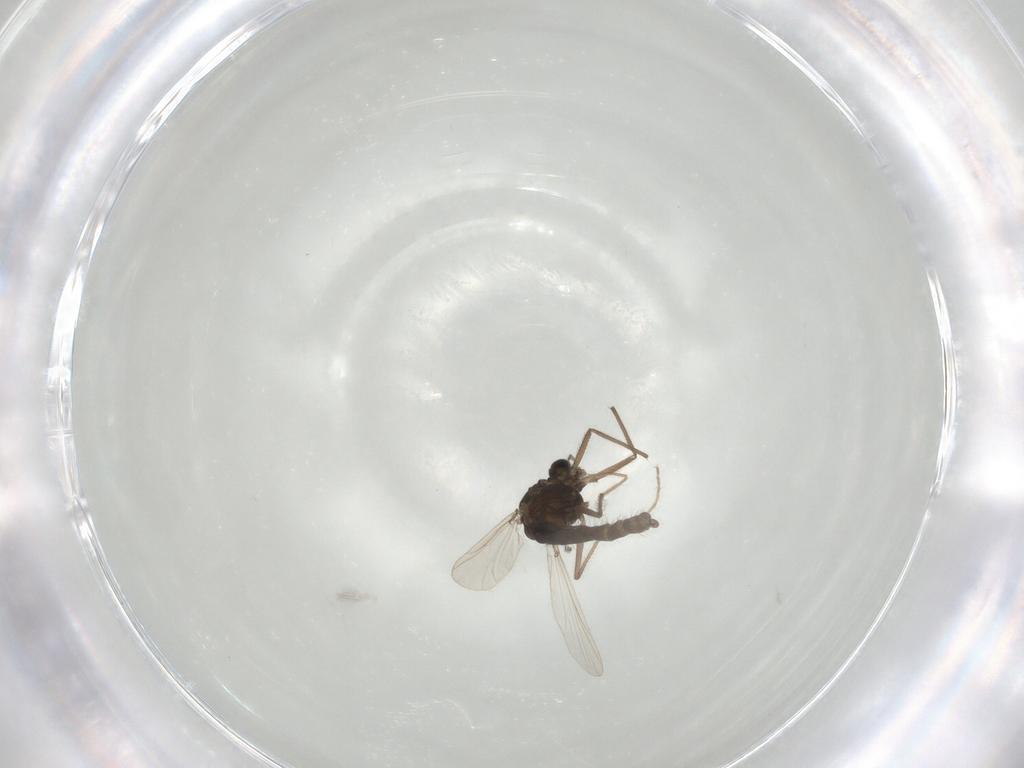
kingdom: Animalia
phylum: Arthropoda
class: Insecta
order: Diptera
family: Chironomidae
